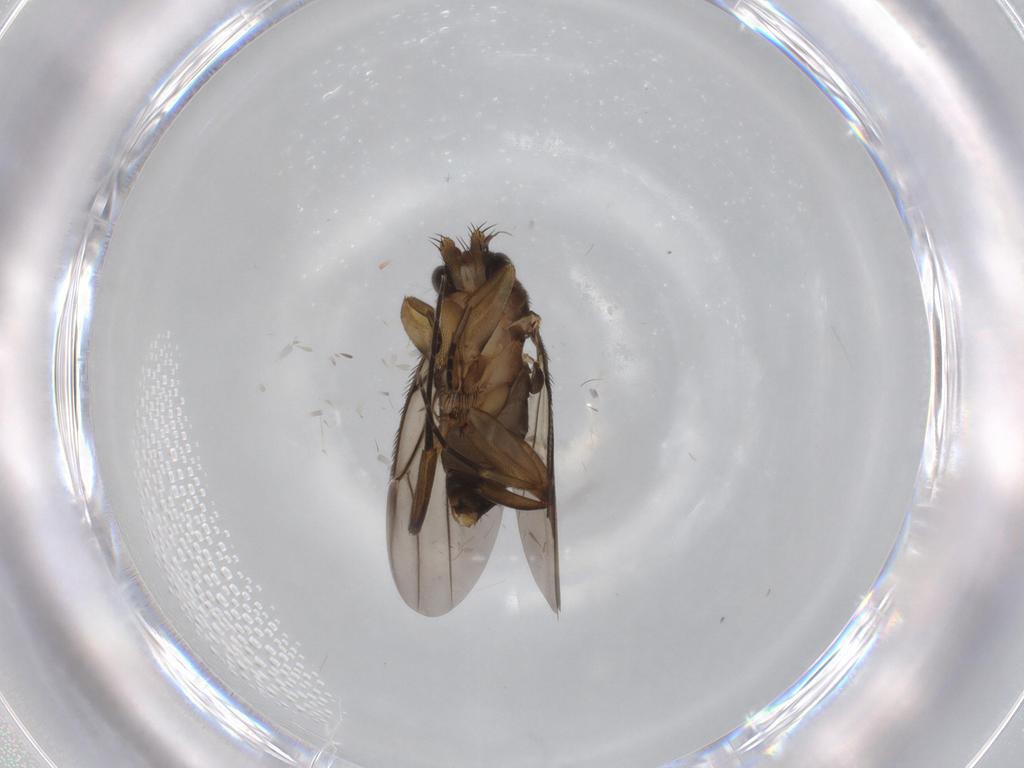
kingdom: Animalia
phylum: Arthropoda
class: Insecta
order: Diptera
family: Phoridae
